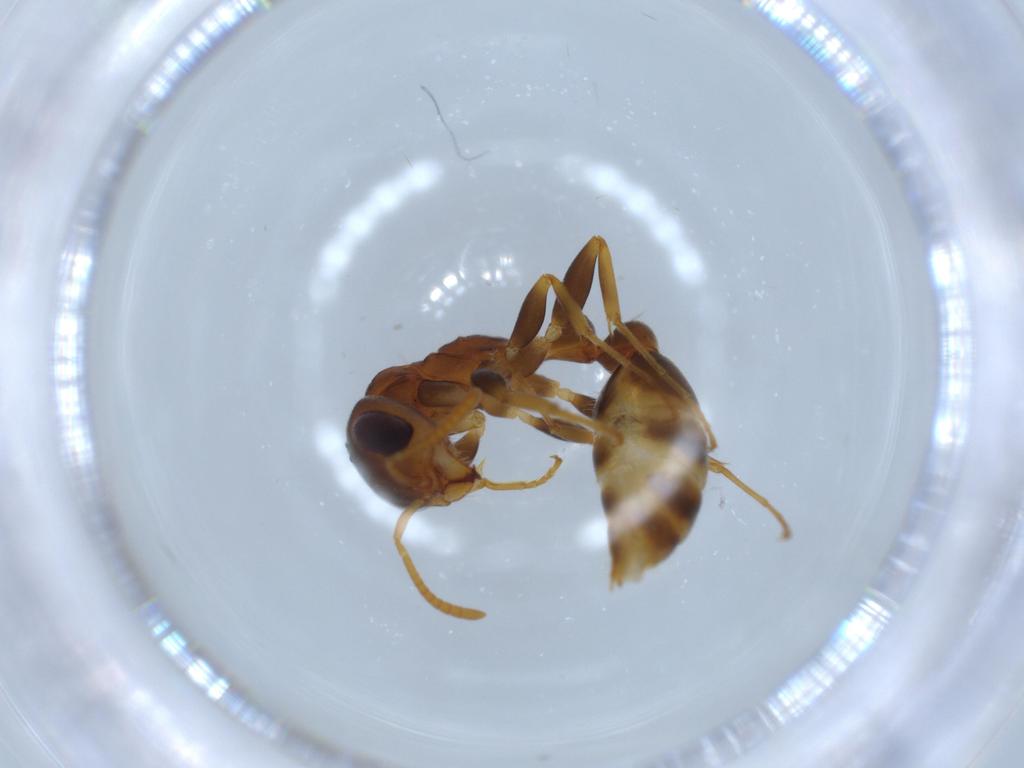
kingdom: Animalia
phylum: Arthropoda
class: Insecta
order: Hymenoptera
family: Formicidae
